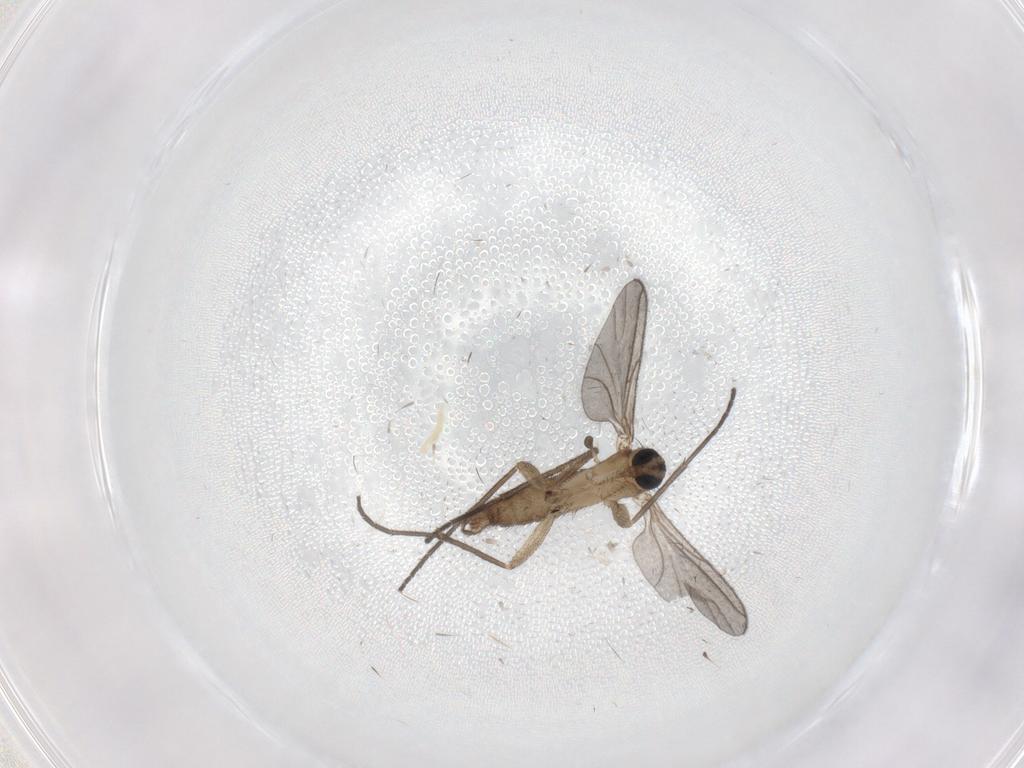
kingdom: Animalia
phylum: Arthropoda
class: Insecta
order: Diptera
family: Sciaridae
